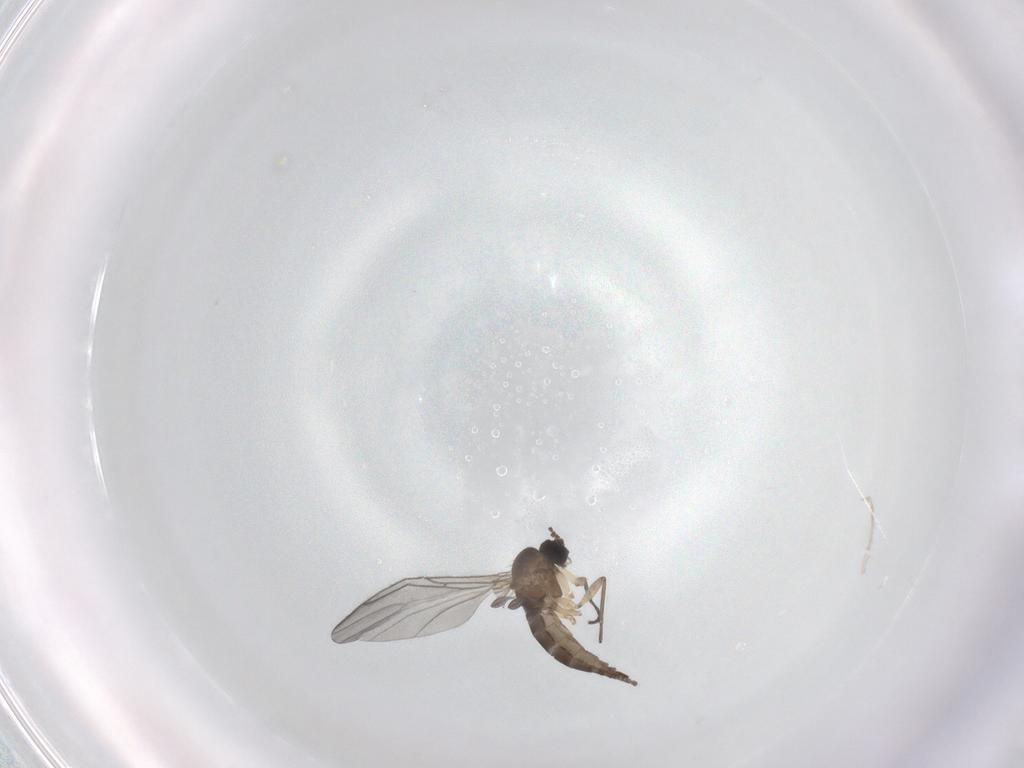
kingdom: Animalia
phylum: Arthropoda
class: Insecta
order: Diptera
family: Sciaridae
